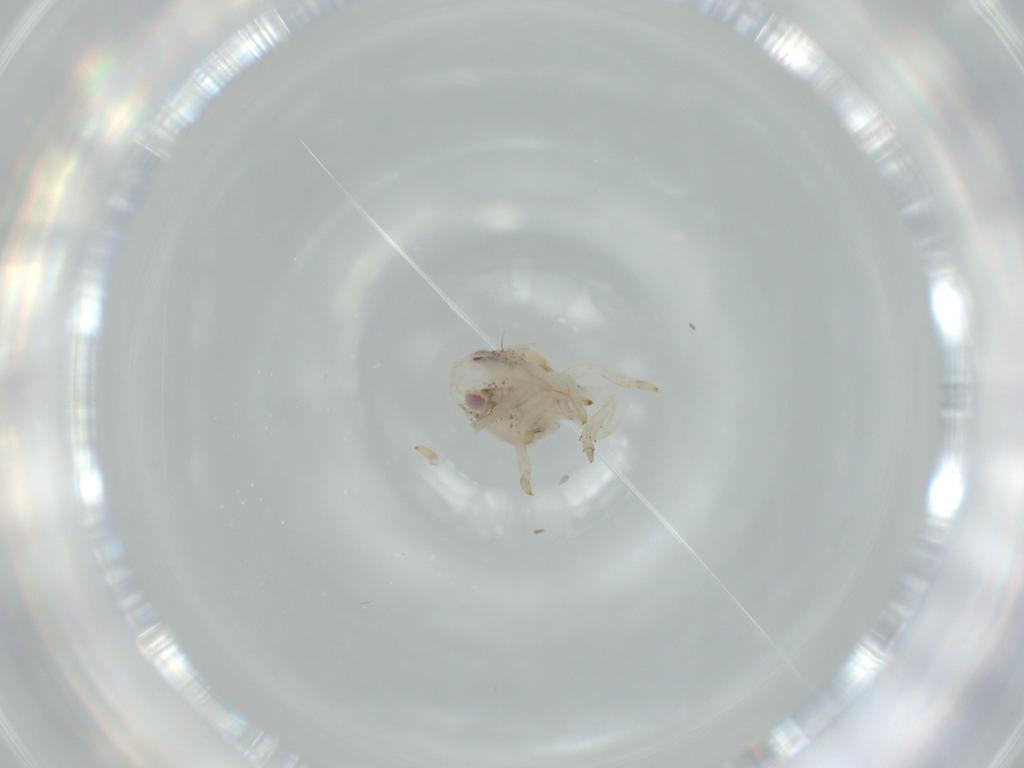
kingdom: Animalia
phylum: Arthropoda
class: Insecta
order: Hemiptera
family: Acanaloniidae
